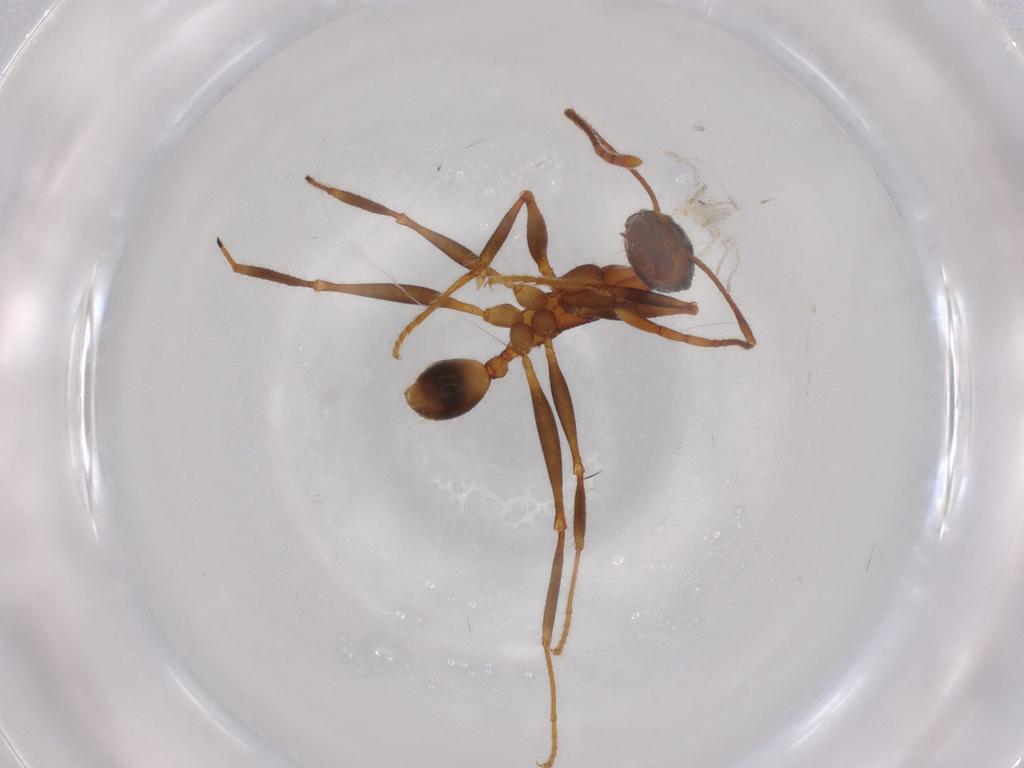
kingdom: Animalia
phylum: Arthropoda
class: Insecta
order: Hymenoptera
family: Formicidae
